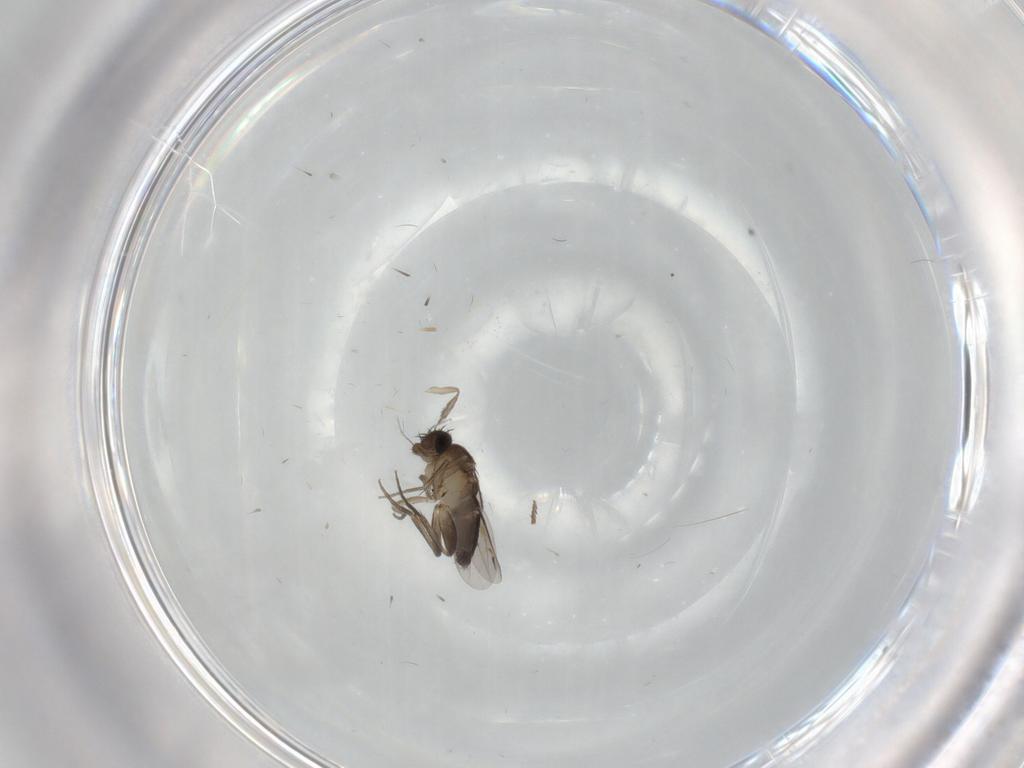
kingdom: Animalia
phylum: Arthropoda
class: Insecta
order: Diptera
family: Phoridae
